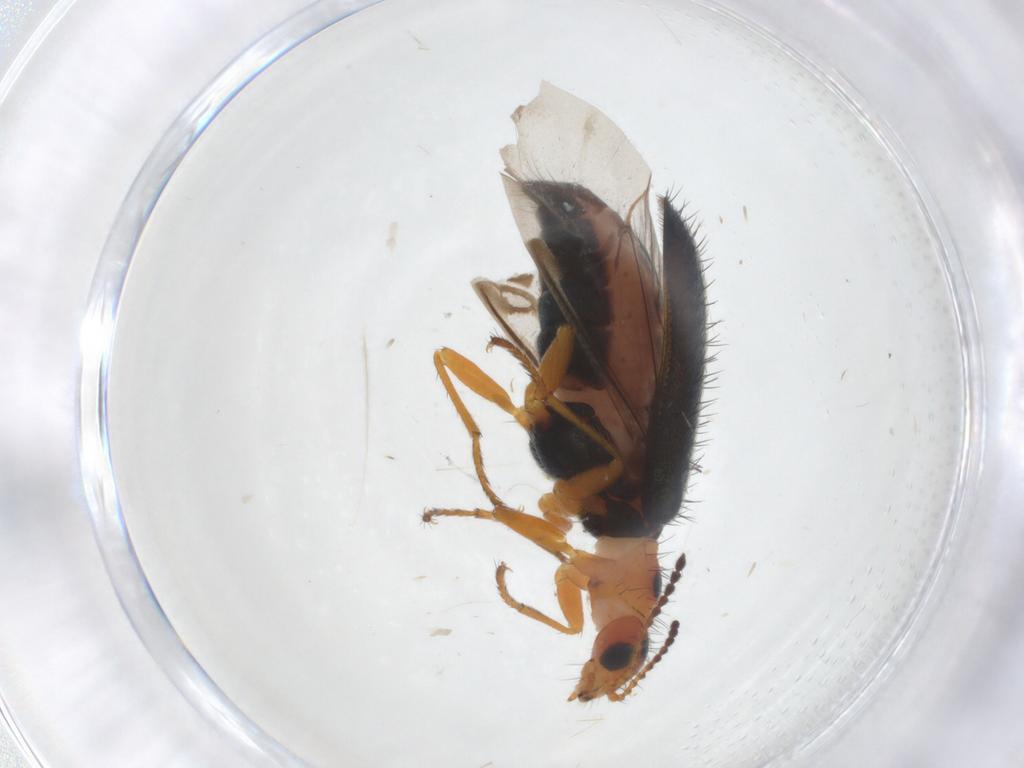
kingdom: Animalia
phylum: Arthropoda
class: Insecta
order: Coleoptera
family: Melyridae
